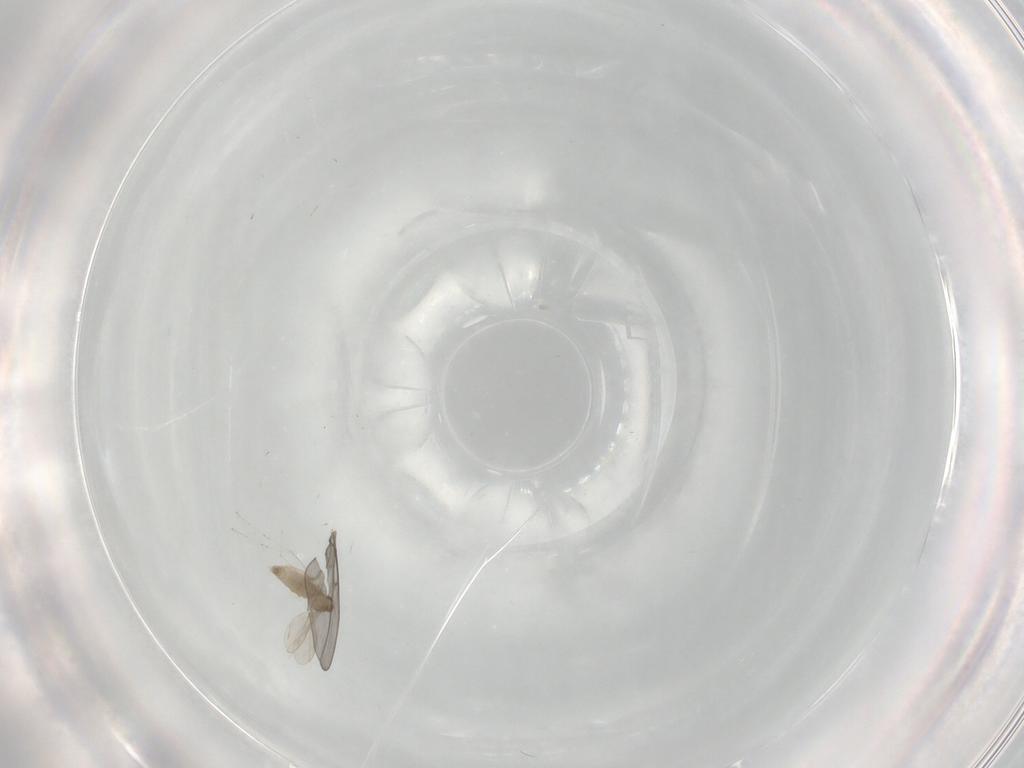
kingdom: Animalia
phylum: Arthropoda
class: Insecta
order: Diptera
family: Cecidomyiidae
